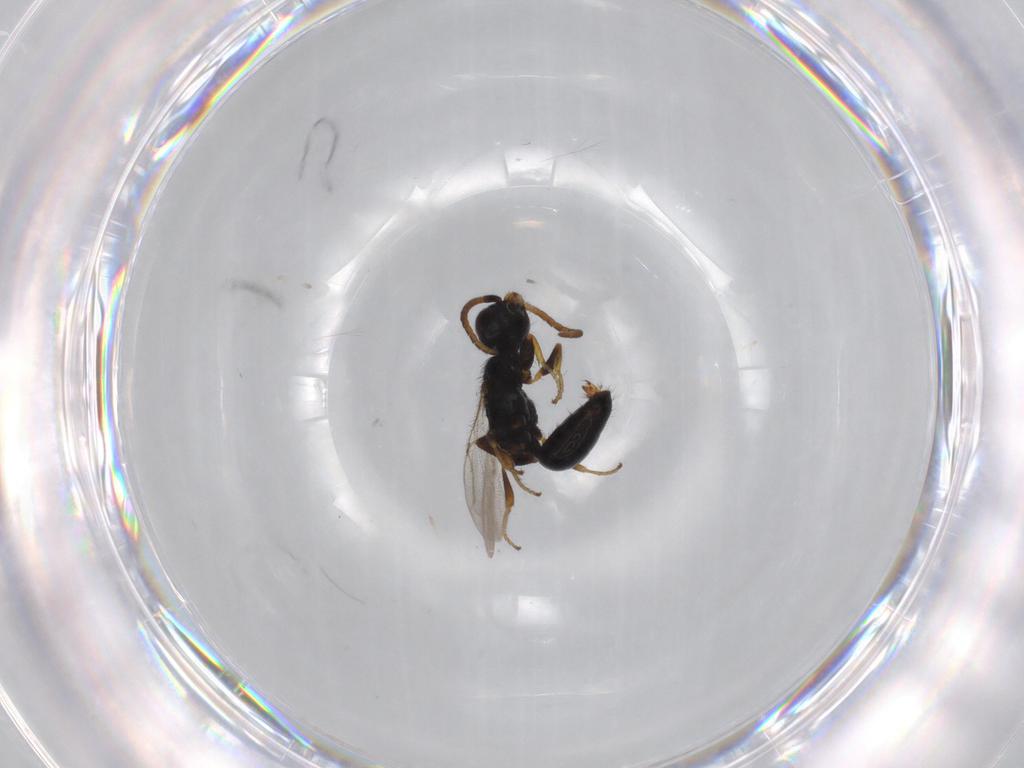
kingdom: Animalia
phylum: Arthropoda
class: Insecta
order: Hymenoptera
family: Bethylidae
